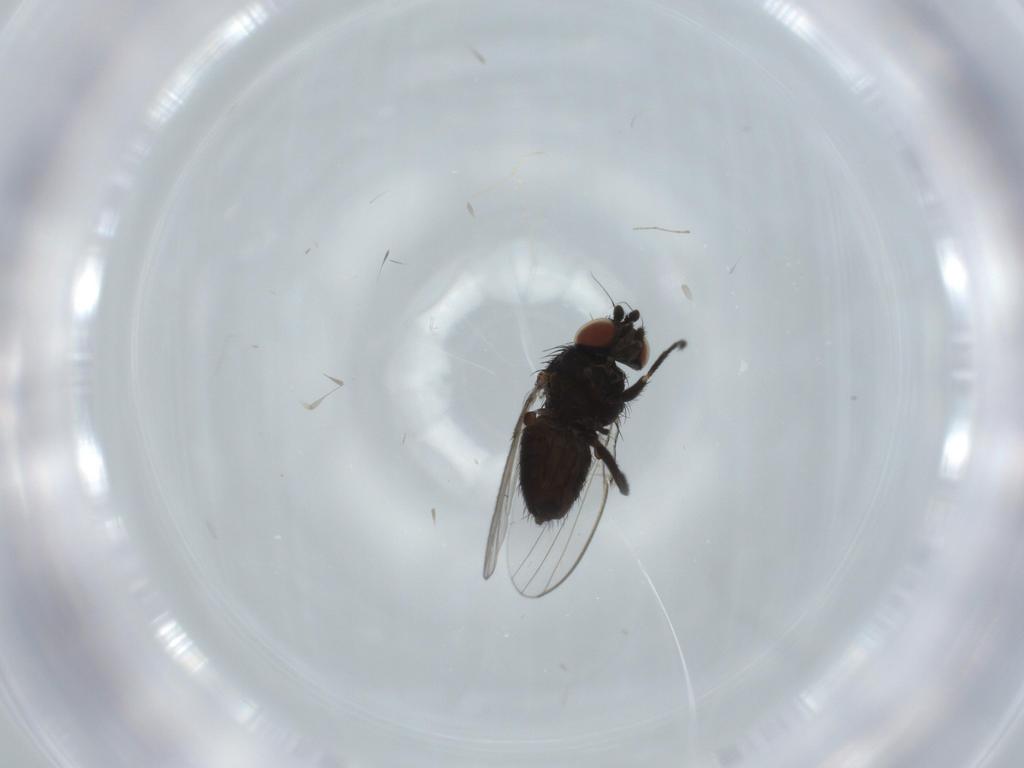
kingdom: Animalia
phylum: Arthropoda
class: Insecta
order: Diptera
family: Milichiidae
